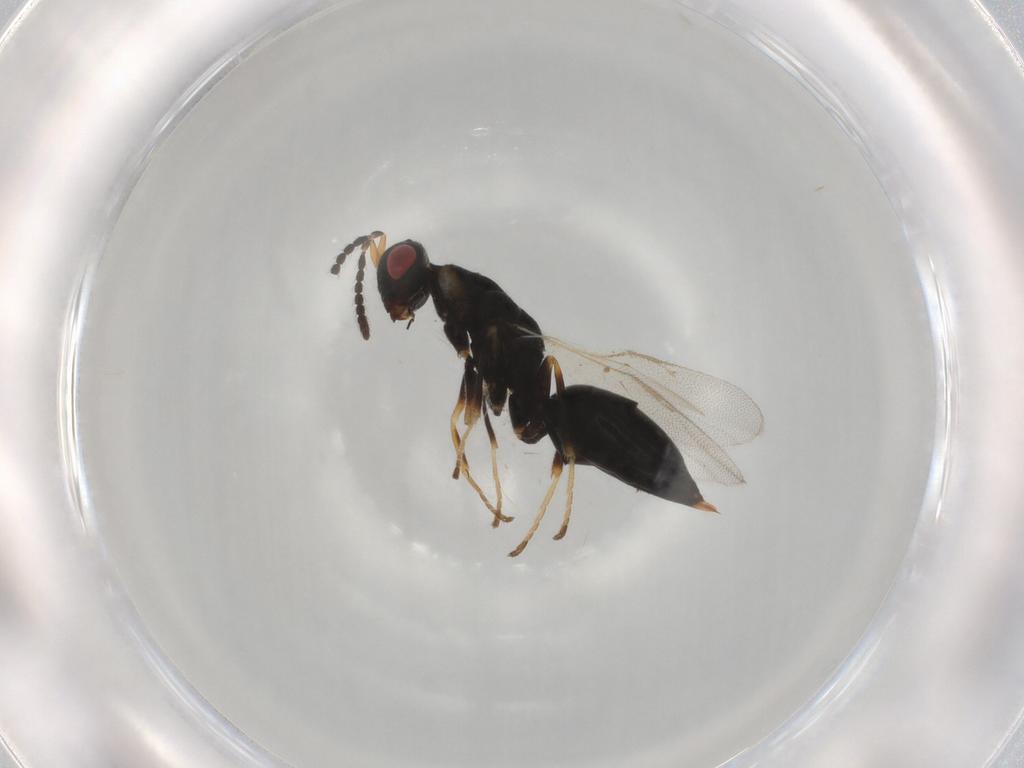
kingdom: Animalia
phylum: Arthropoda
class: Insecta
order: Hymenoptera
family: Eurytomidae
